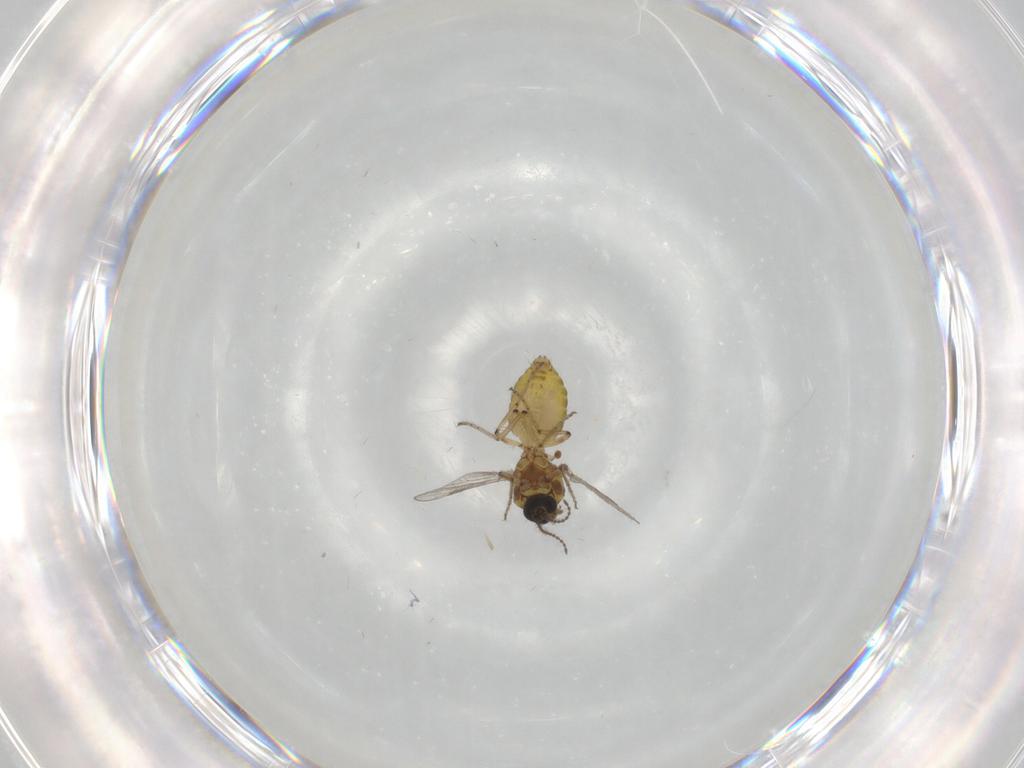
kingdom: Animalia
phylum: Arthropoda
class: Insecta
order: Diptera
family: Ceratopogonidae
